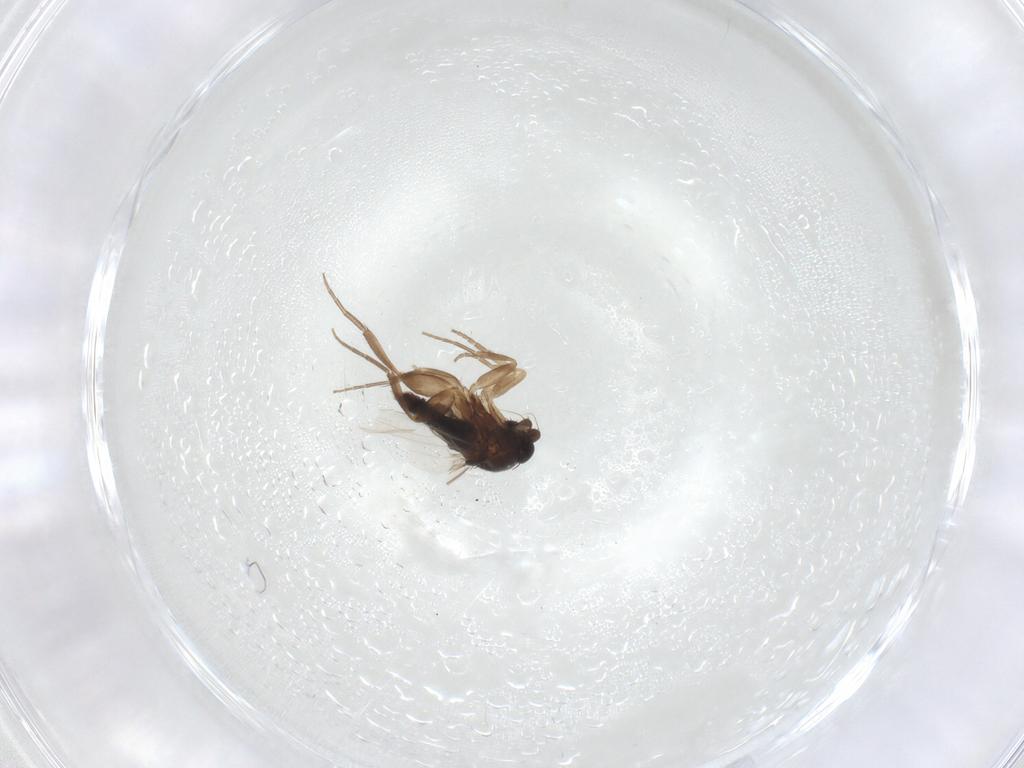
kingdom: Animalia
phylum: Arthropoda
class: Insecta
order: Diptera
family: Phoridae
